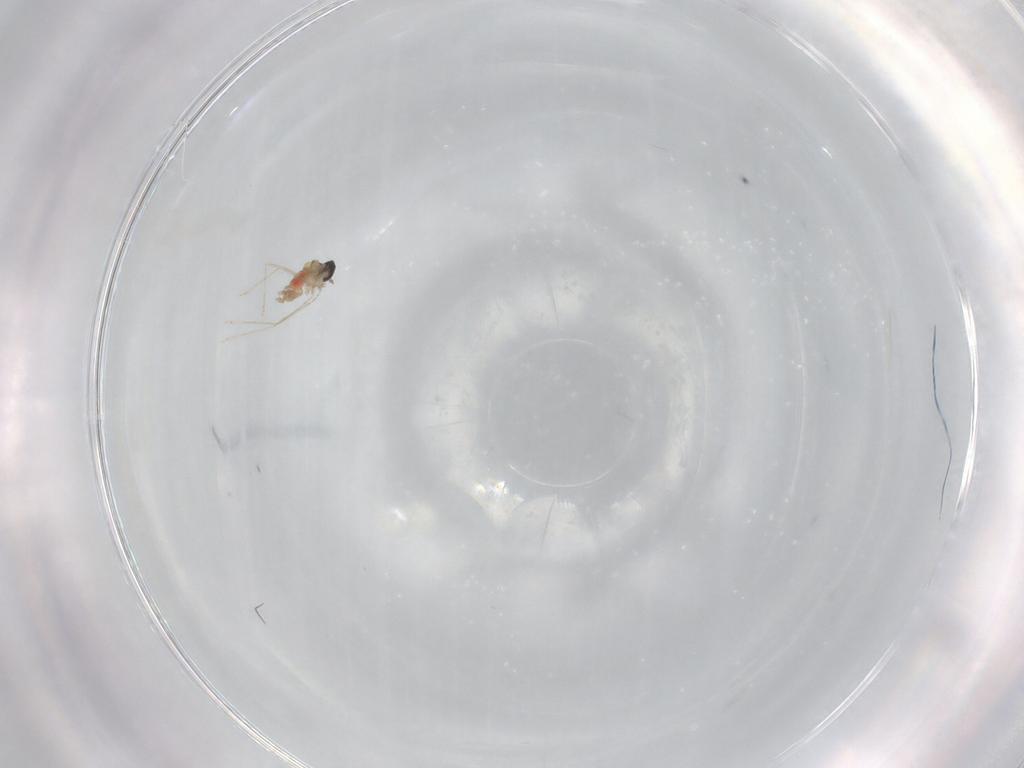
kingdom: Animalia
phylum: Arthropoda
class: Insecta
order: Diptera
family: Cecidomyiidae
